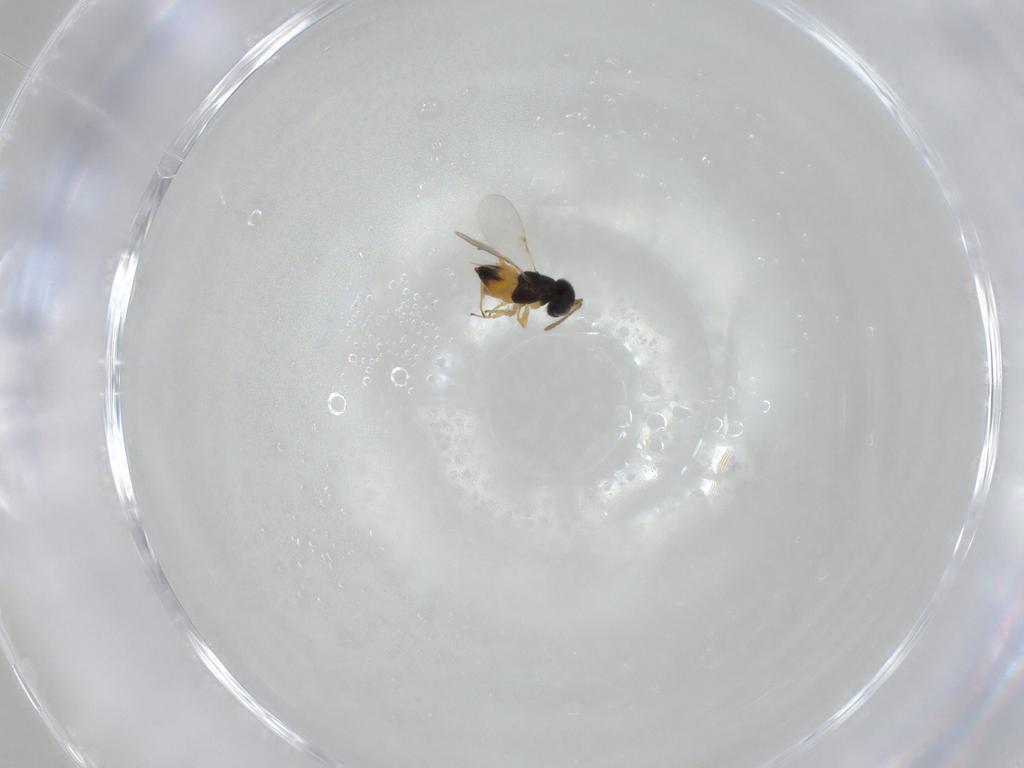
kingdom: Animalia
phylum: Arthropoda
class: Insecta
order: Hymenoptera
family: Encyrtidae
